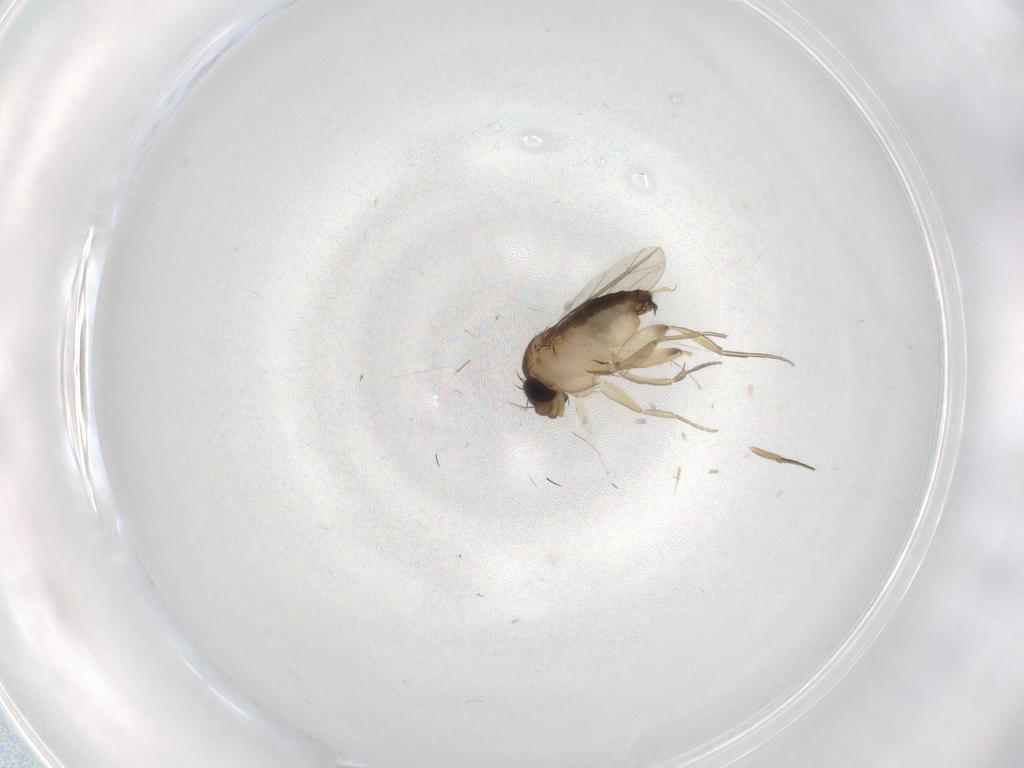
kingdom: Animalia
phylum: Arthropoda
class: Insecta
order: Diptera
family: Phoridae
